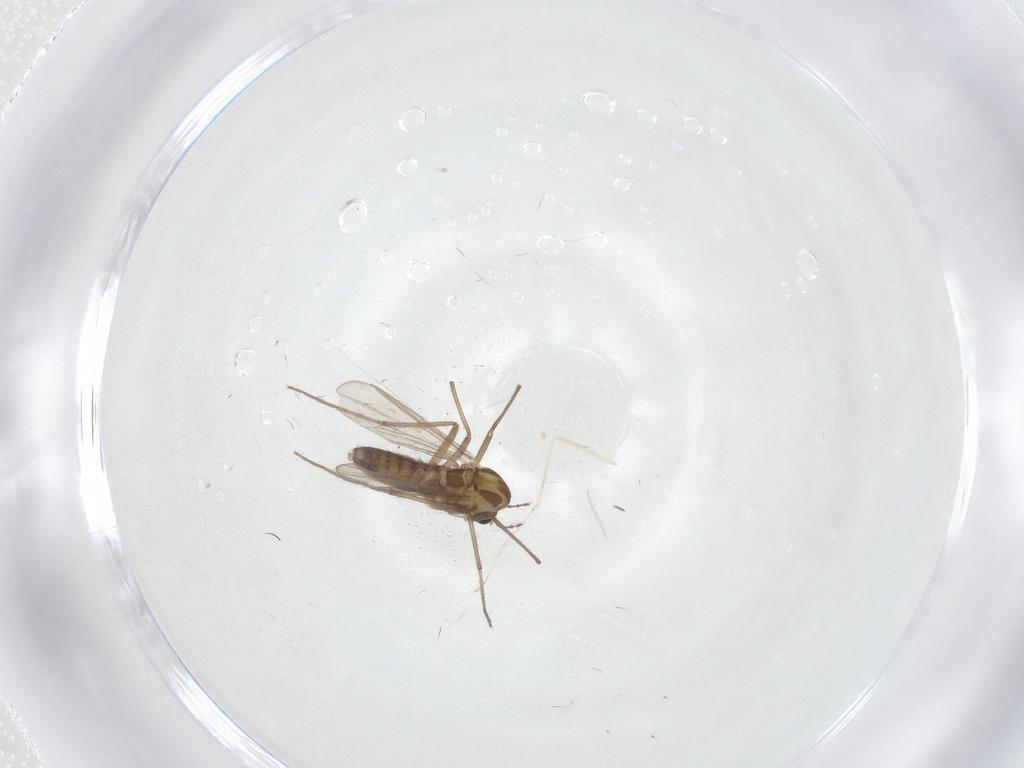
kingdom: Animalia
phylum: Arthropoda
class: Insecta
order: Diptera
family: Chironomidae
